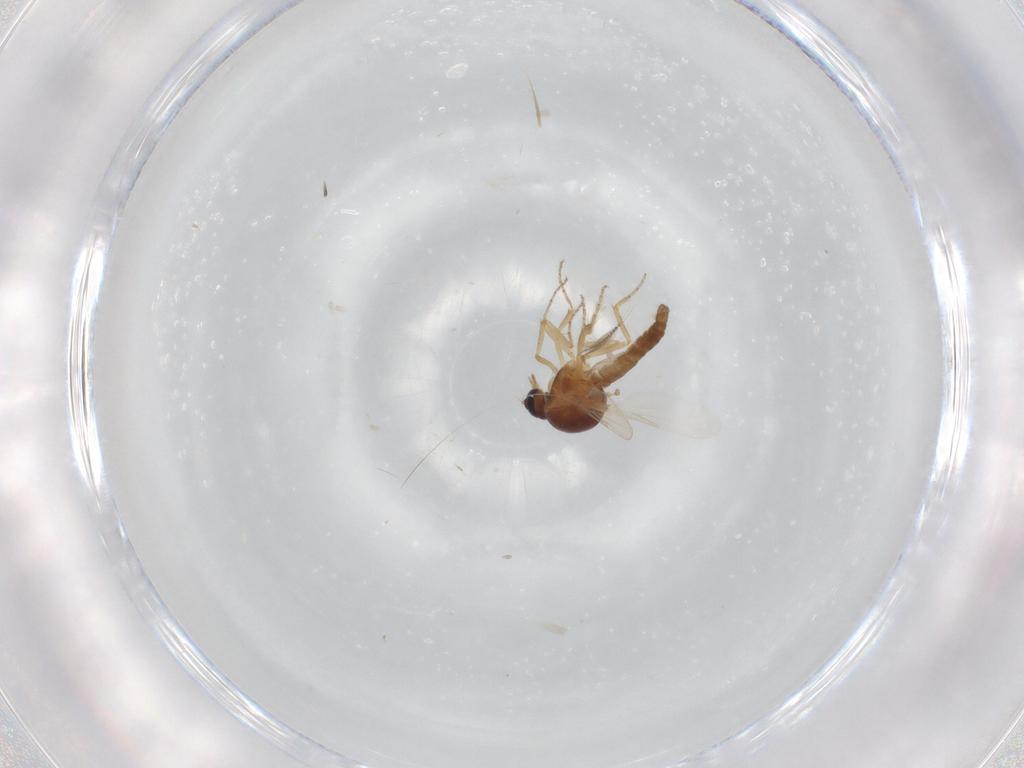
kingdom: Animalia
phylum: Arthropoda
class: Insecta
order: Diptera
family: Ceratopogonidae
